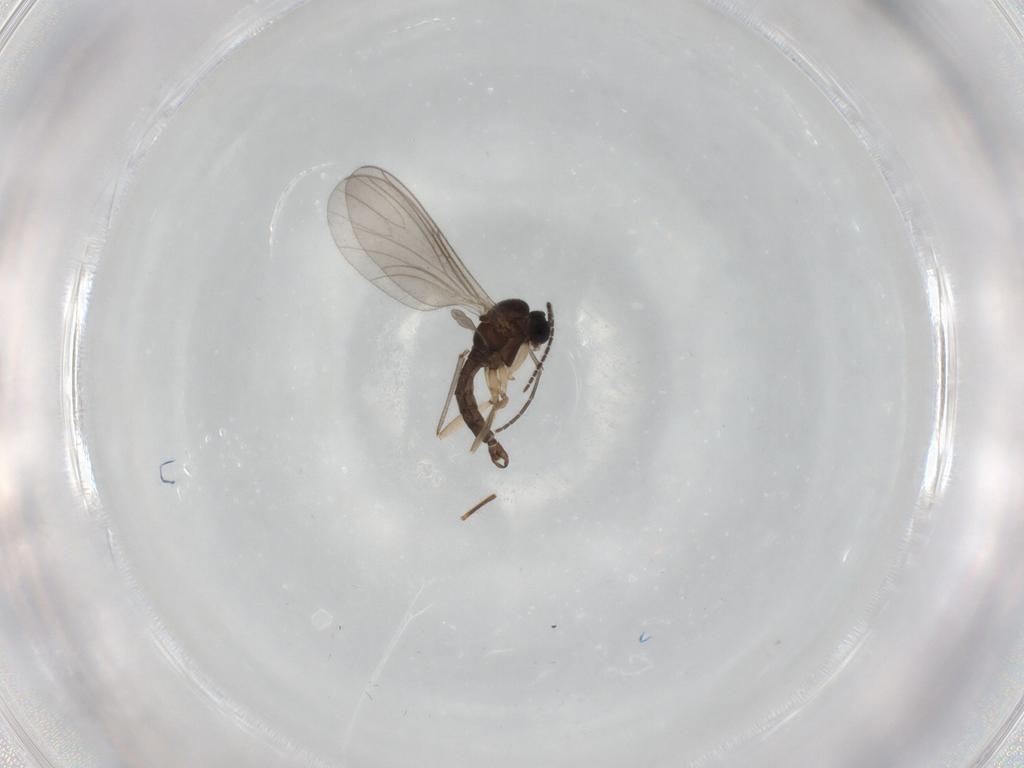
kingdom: Animalia
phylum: Arthropoda
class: Insecta
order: Diptera
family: Sciaridae
